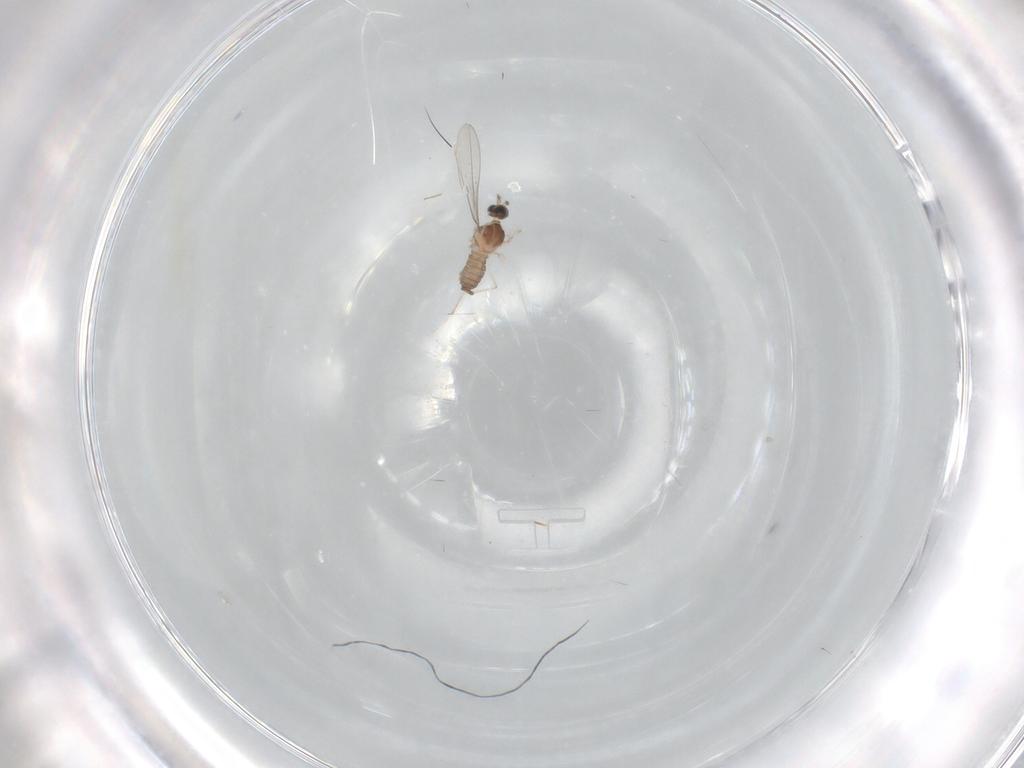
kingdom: Animalia
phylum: Arthropoda
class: Insecta
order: Diptera
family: Cecidomyiidae
